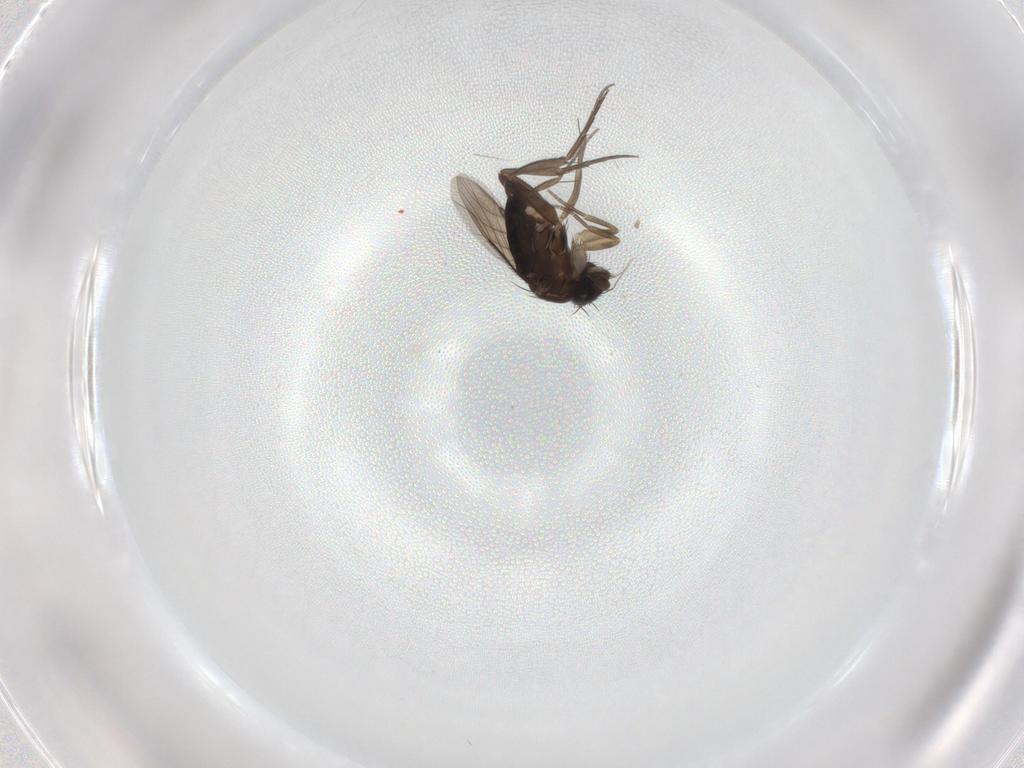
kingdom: Animalia
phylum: Arthropoda
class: Insecta
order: Diptera
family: Phoridae
